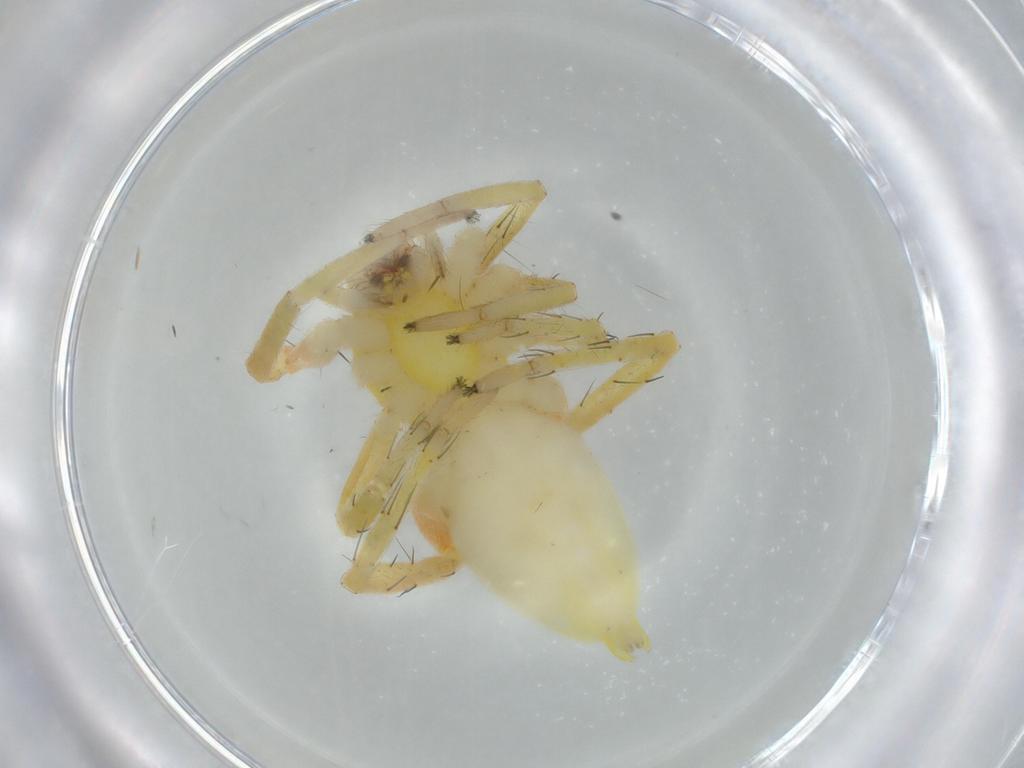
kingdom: Animalia
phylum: Arthropoda
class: Arachnida
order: Araneae
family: Anyphaenidae
